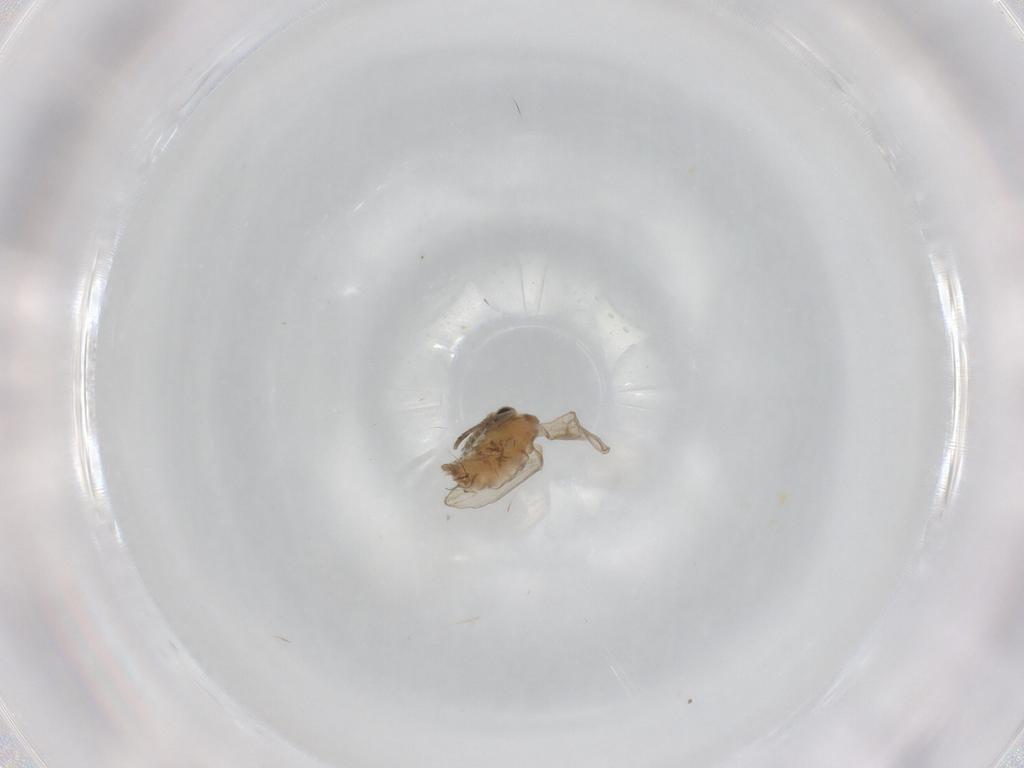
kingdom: Animalia
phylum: Arthropoda
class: Insecta
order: Diptera
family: Cecidomyiidae
